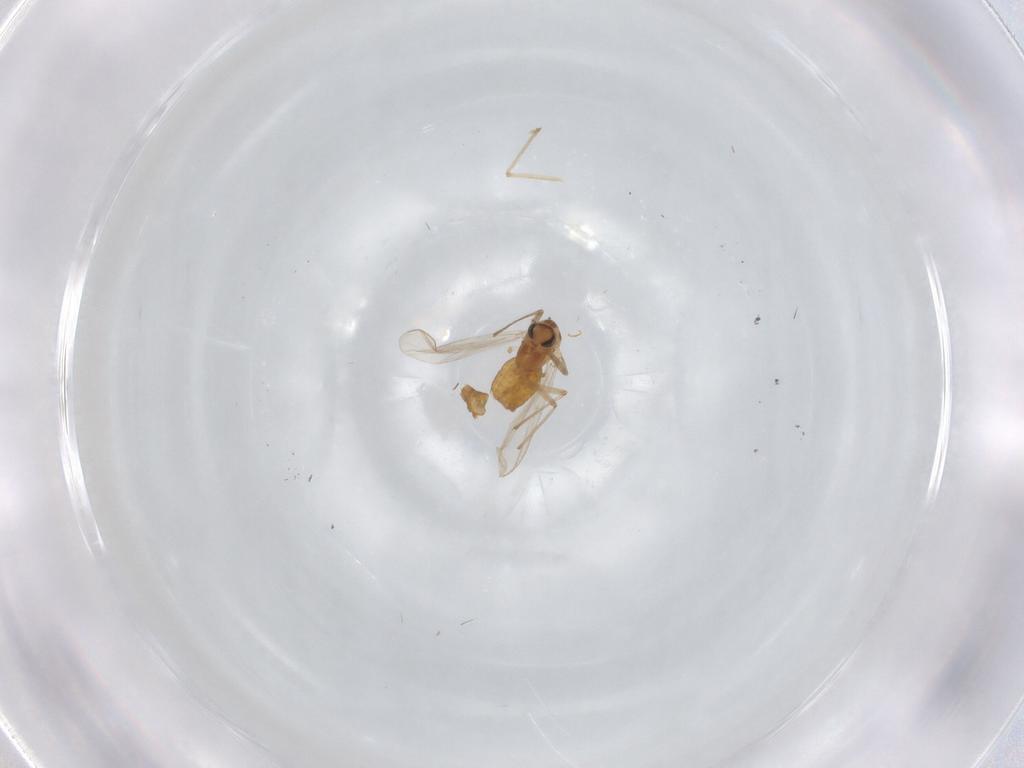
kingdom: Animalia
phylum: Arthropoda
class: Insecta
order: Diptera
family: Chironomidae
